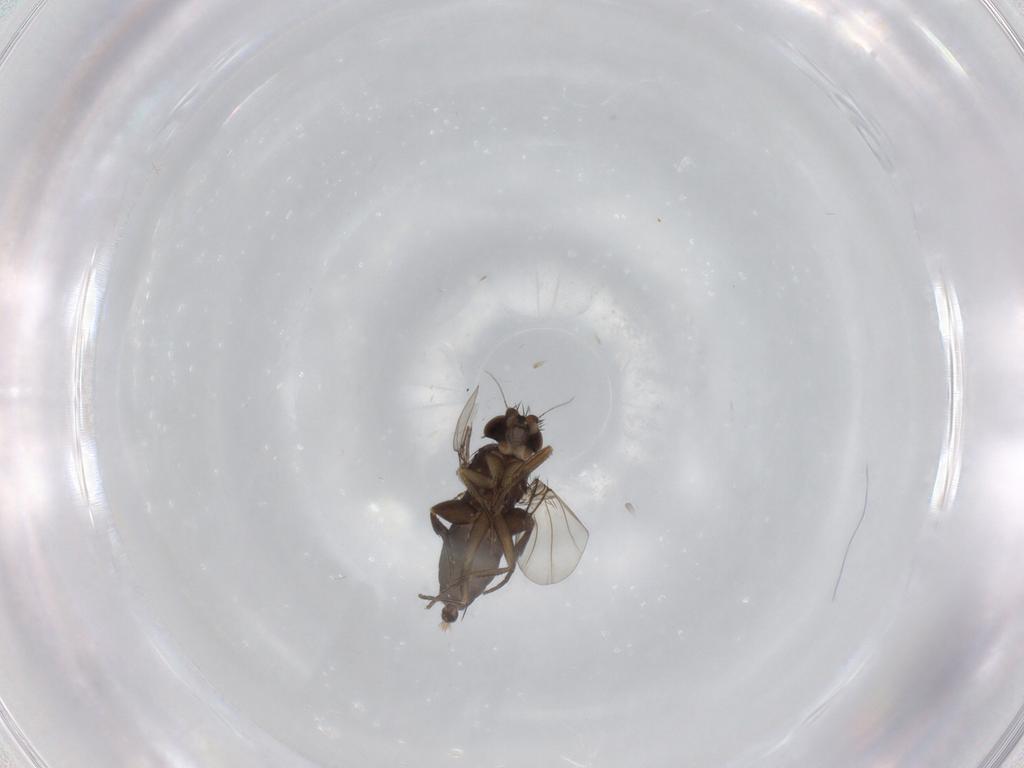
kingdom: Animalia
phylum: Arthropoda
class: Insecta
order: Diptera
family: Phoridae
